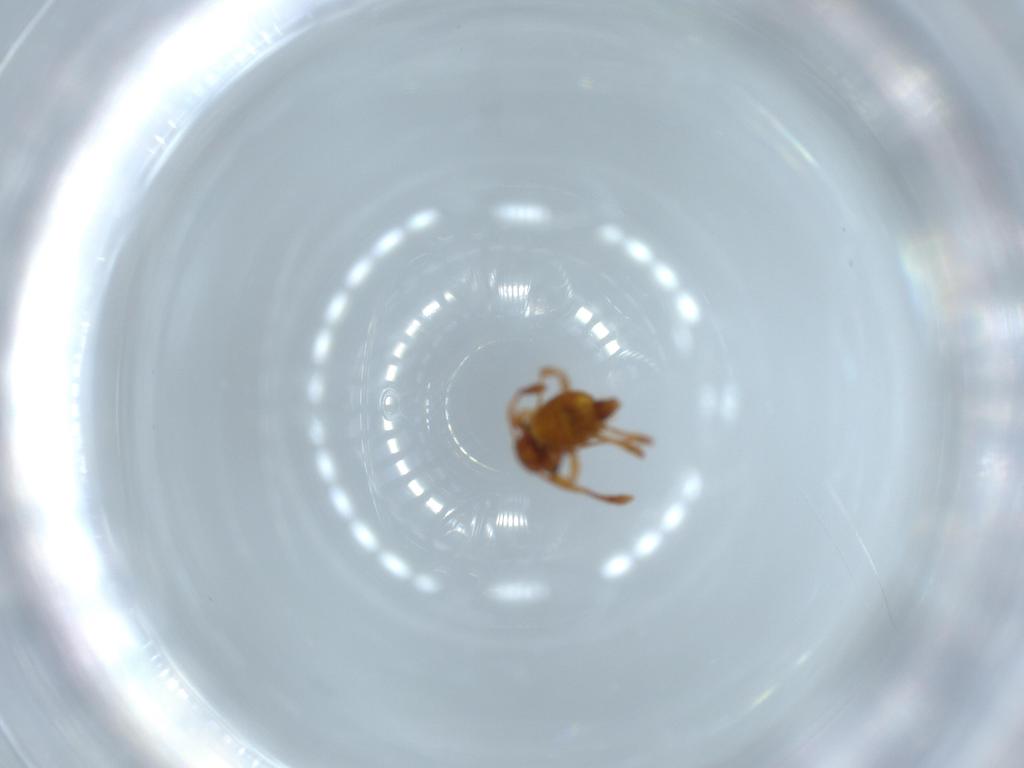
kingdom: Animalia
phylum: Arthropoda
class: Insecta
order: Hymenoptera
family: Formicidae
